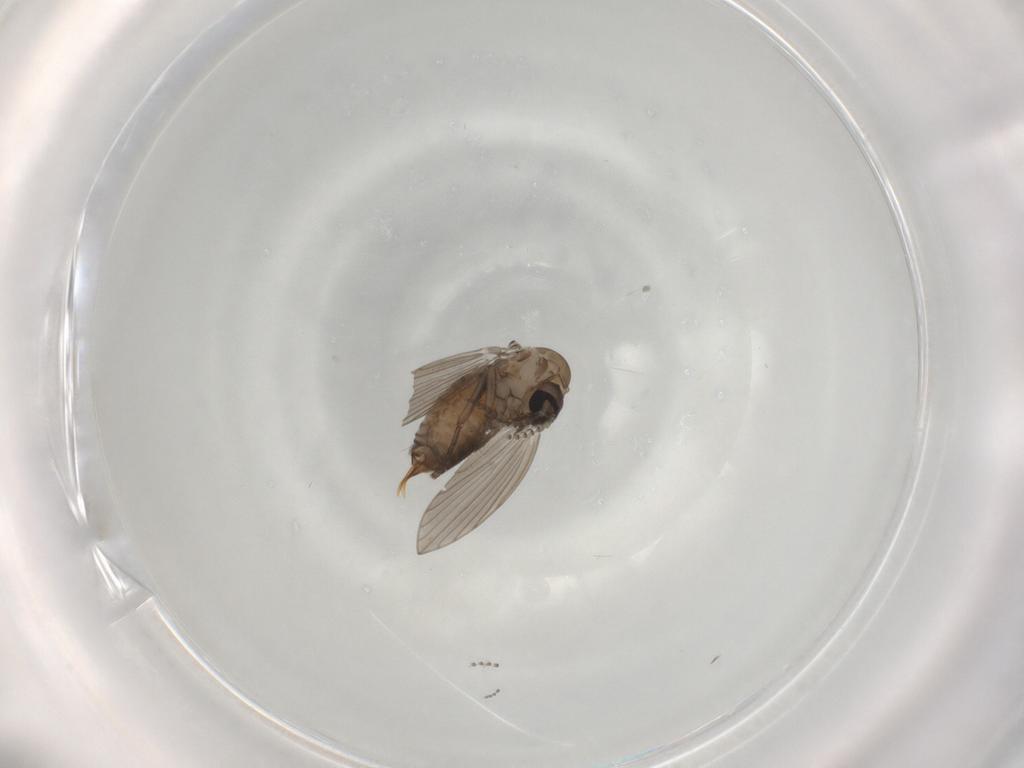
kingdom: Animalia
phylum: Arthropoda
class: Insecta
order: Diptera
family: Psychodidae
